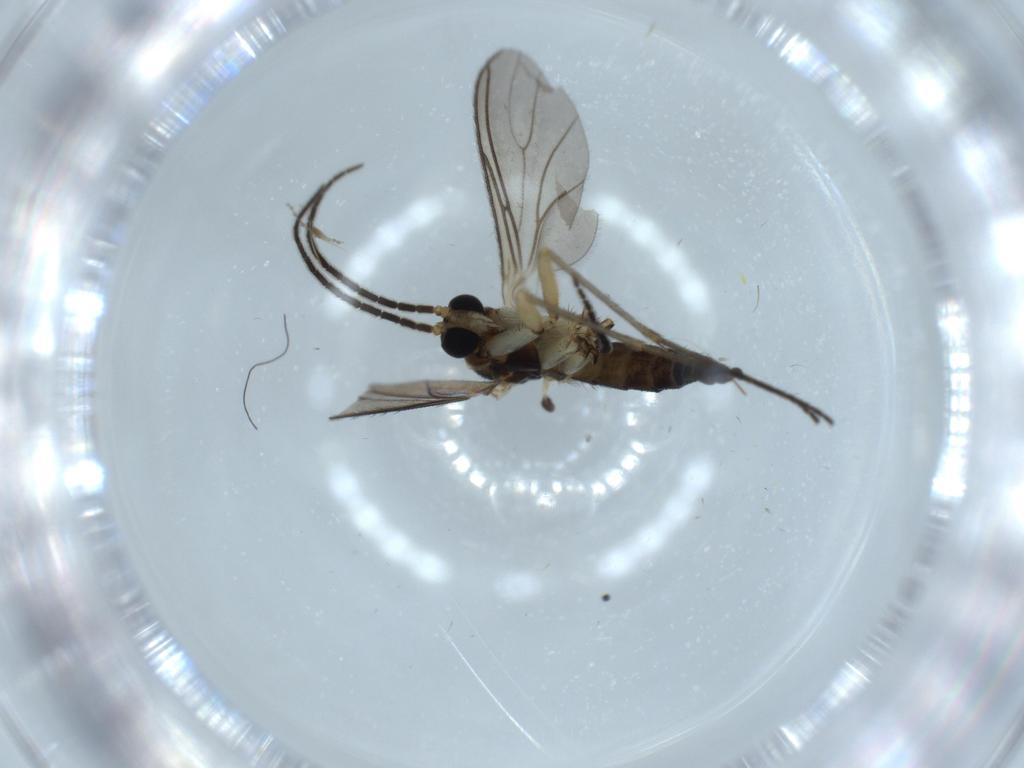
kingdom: Animalia
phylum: Arthropoda
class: Insecta
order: Diptera
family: Sciaridae
